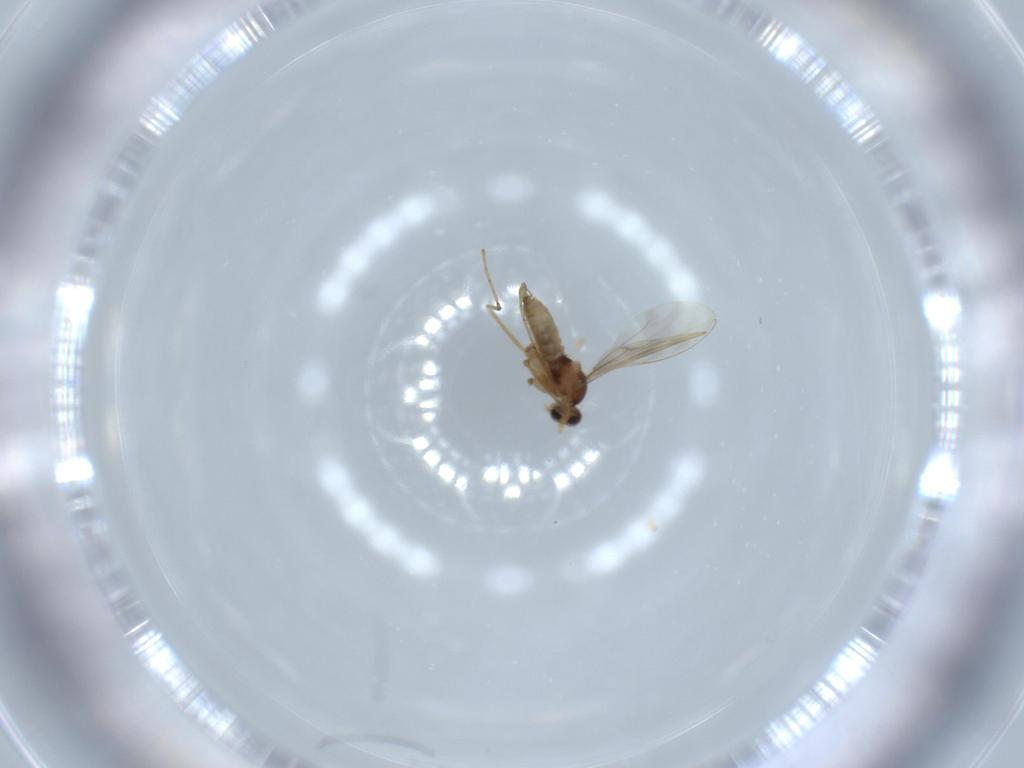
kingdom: Animalia
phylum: Arthropoda
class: Insecta
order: Diptera
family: Cecidomyiidae
